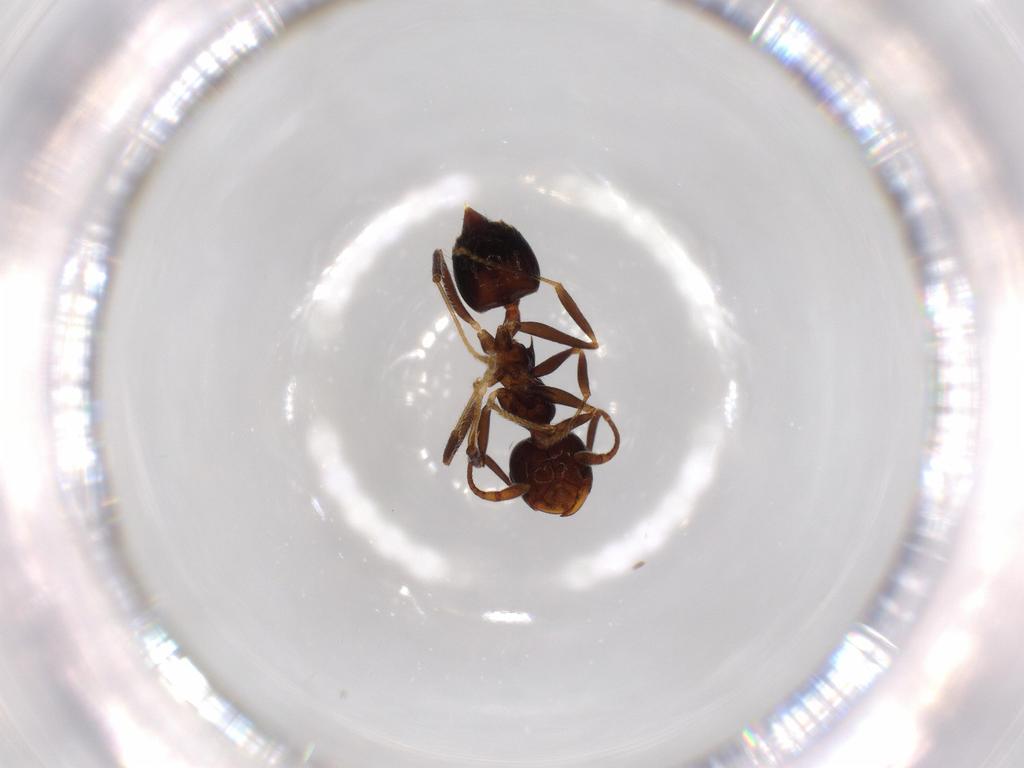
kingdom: Animalia
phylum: Arthropoda
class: Insecta
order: Hymenoptera
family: Formicidae
